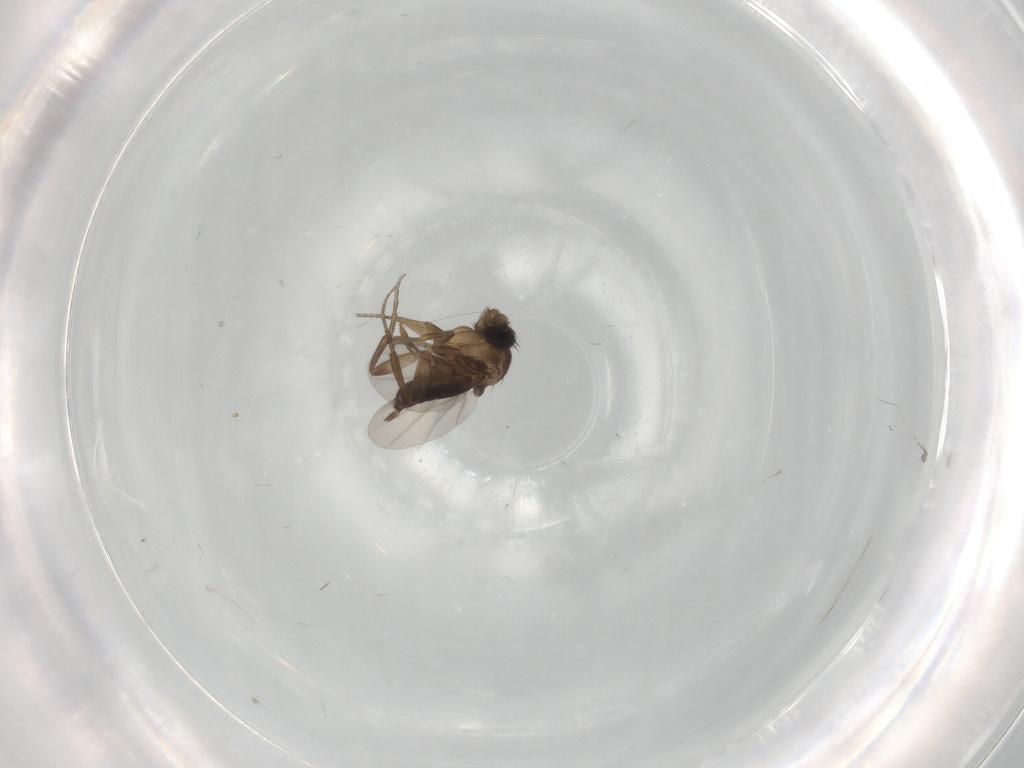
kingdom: Animalia
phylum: Arthropoda
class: Insecta
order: Diptera
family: Phoridae
